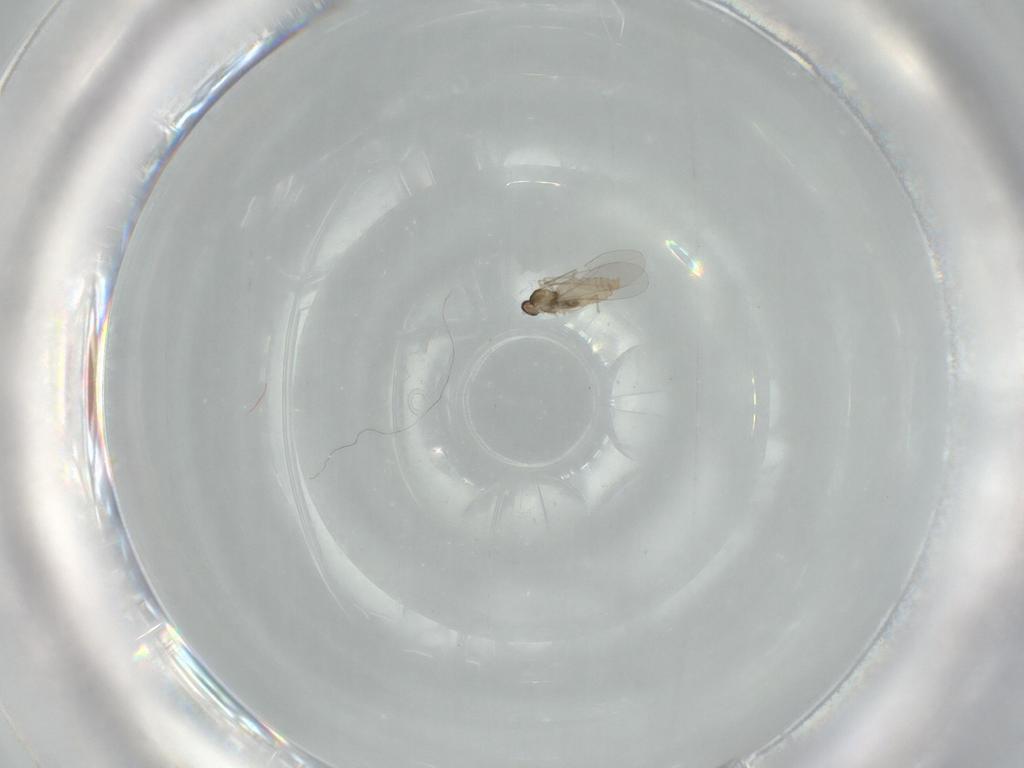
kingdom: Animalia
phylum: Arthropoda
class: Insecta
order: Diptera
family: Cecidomyiidae
